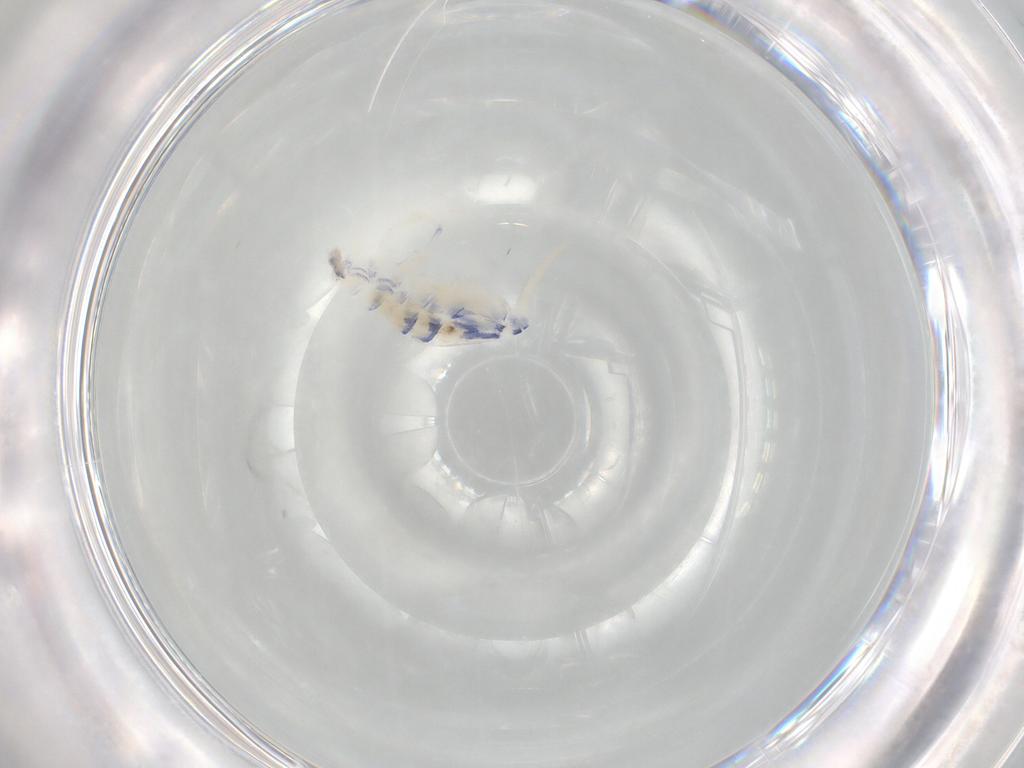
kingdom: Animalia
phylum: Arthropoda
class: Collembola
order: Entomobryomorpha
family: Entomobryidae
